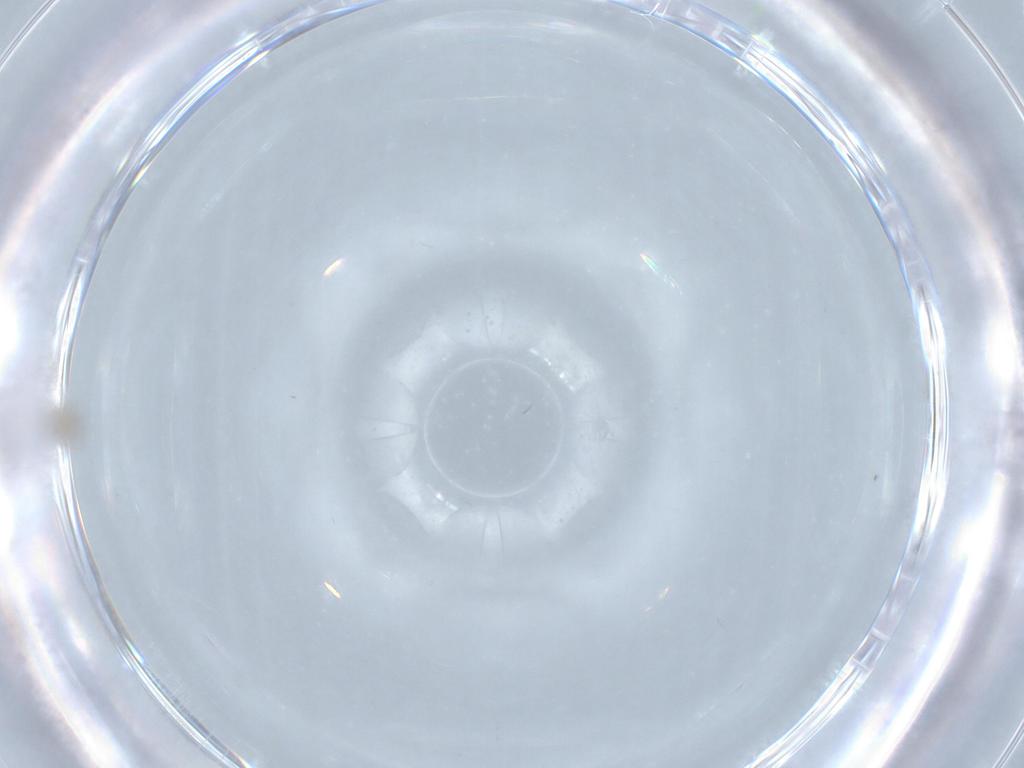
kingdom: Animalia
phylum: Arthropoda
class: Insecta
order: Diptera
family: Cecidomyiidae
